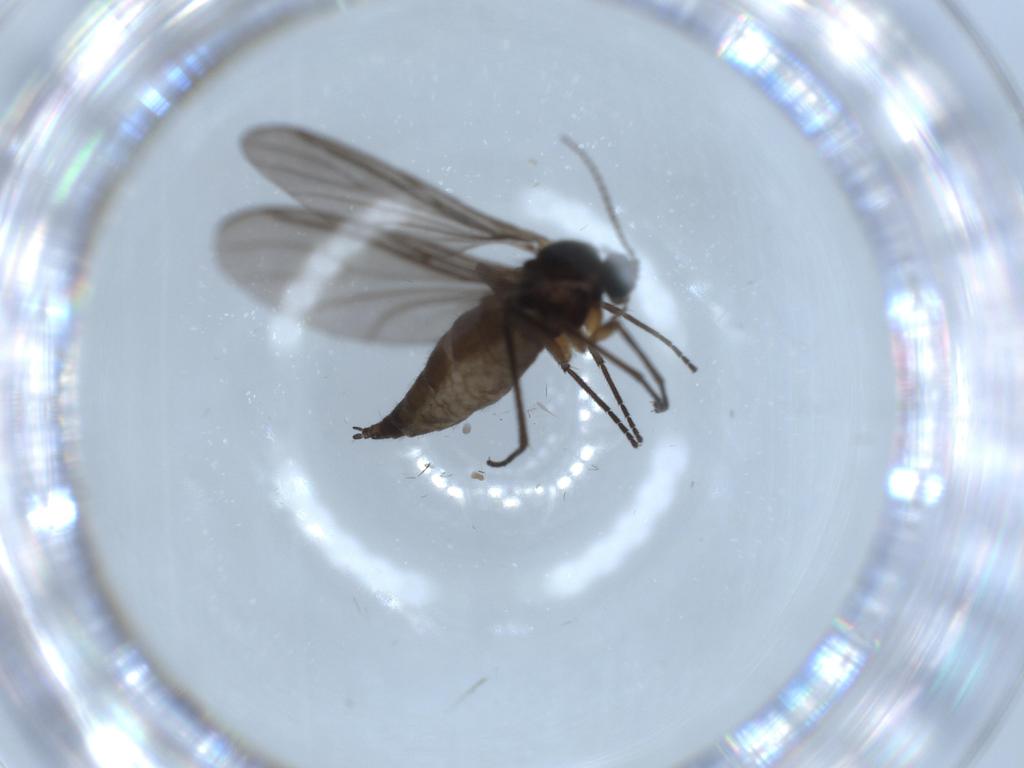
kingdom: Animalia
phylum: Arthropoda
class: Insecta
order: Diptera
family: Sciaridae
